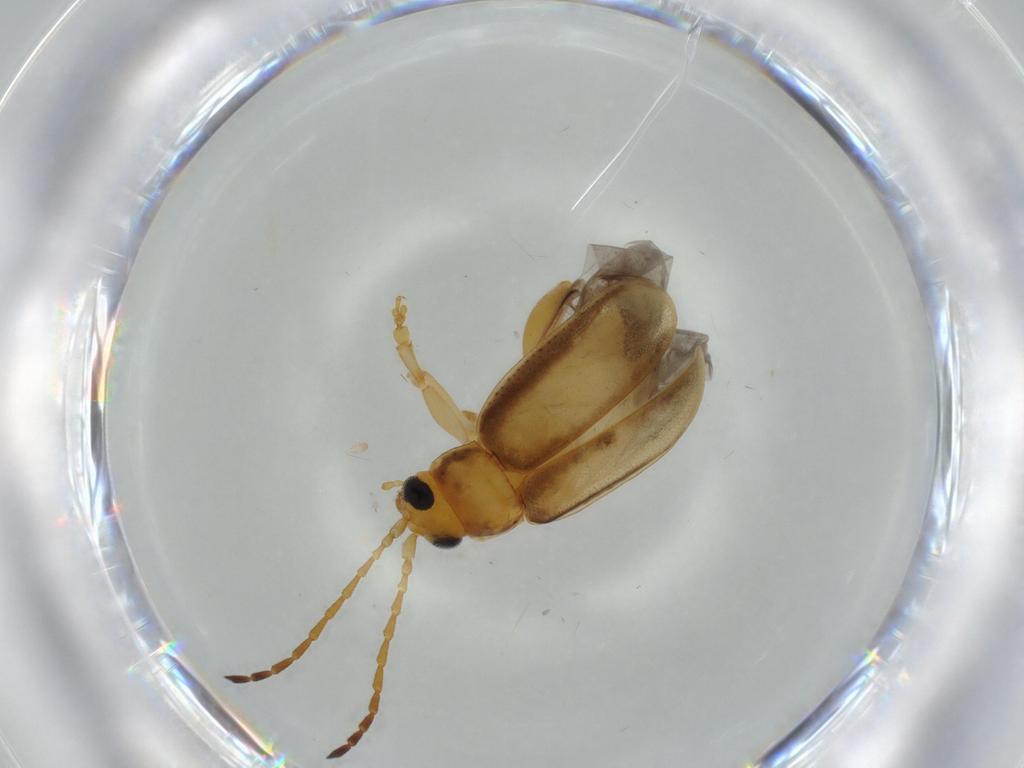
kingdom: Animalia
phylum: Arthropoda
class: Insecta
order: Coleoptera
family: Chrysomelidae
